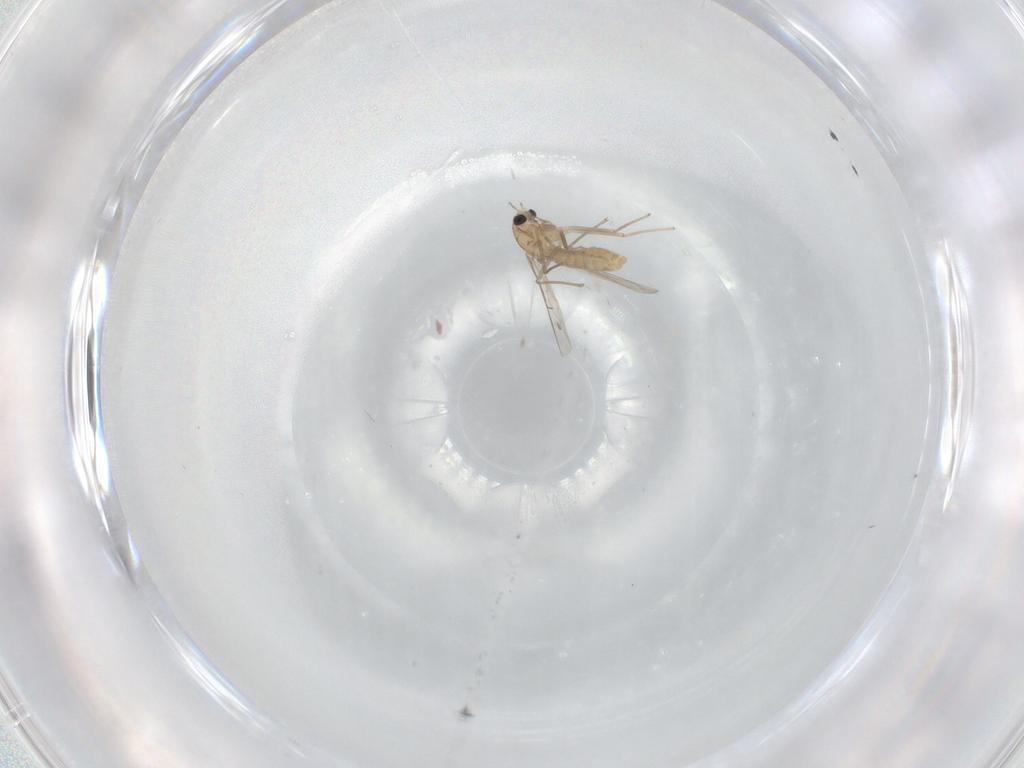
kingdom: Animalia
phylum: Arthropoda
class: Insecta
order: Diptera
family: Chironomidae
